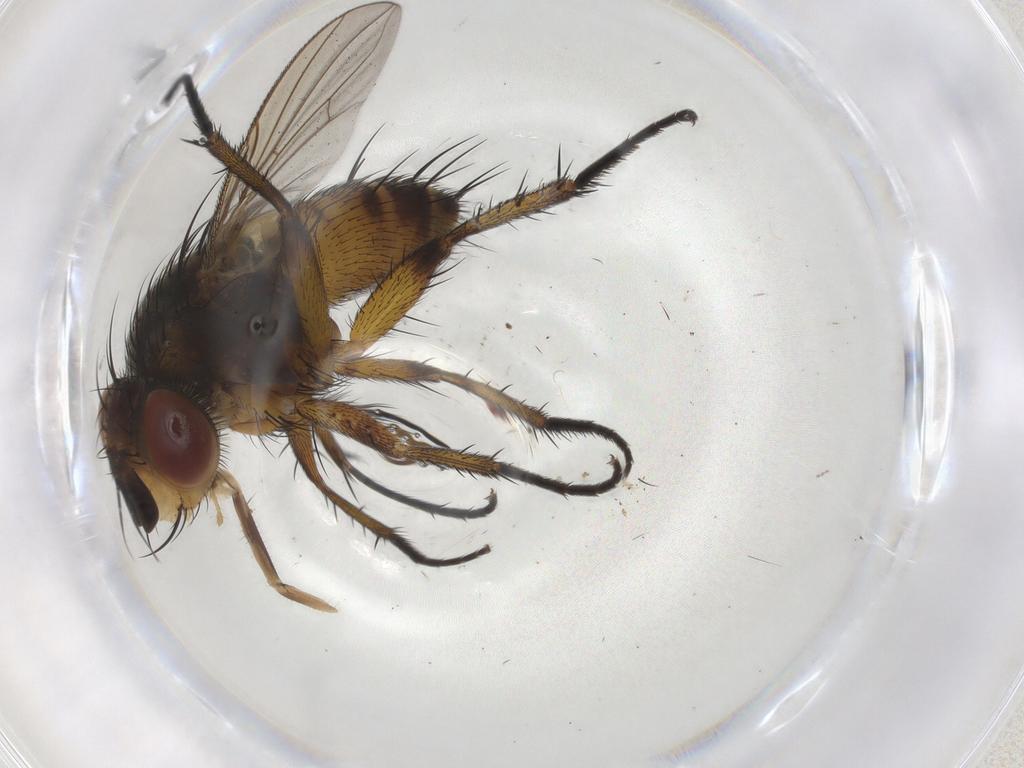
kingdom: Animalia
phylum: Arthropoda
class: Insecta
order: Diptera
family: Tachinidae
